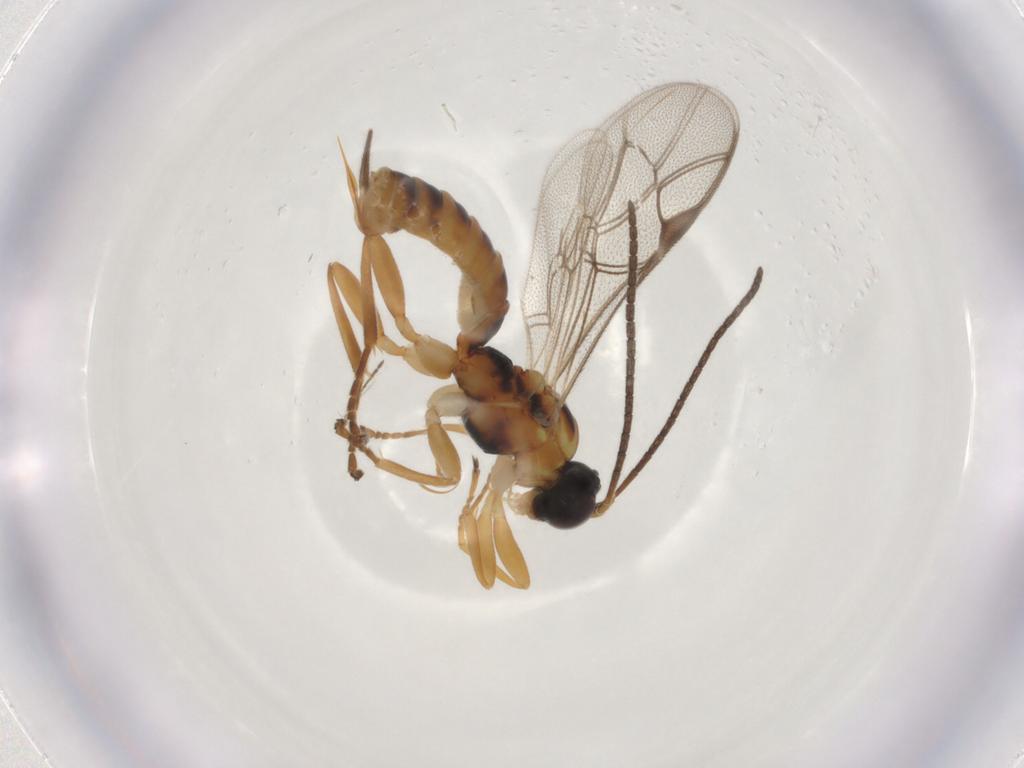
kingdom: Animalia
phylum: Arthropoda
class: Insecta
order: Hymenoptera
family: Ichneumonidae
